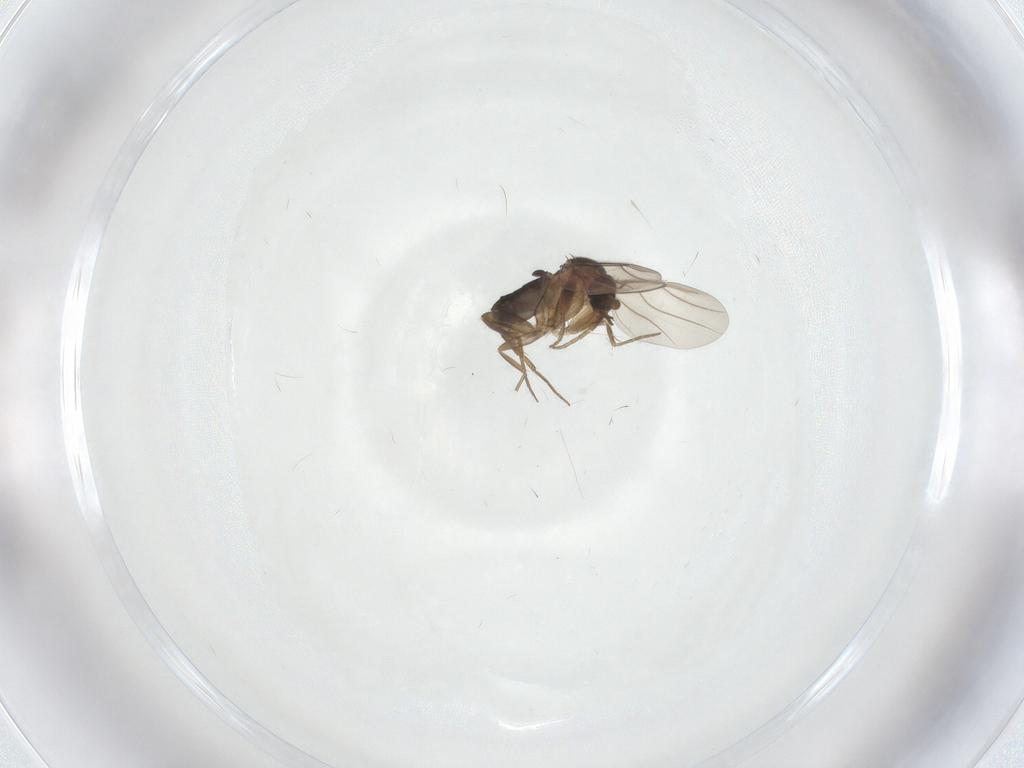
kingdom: Animalia
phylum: Arthropoda
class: Insecta
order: Diptera
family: Phoridae
